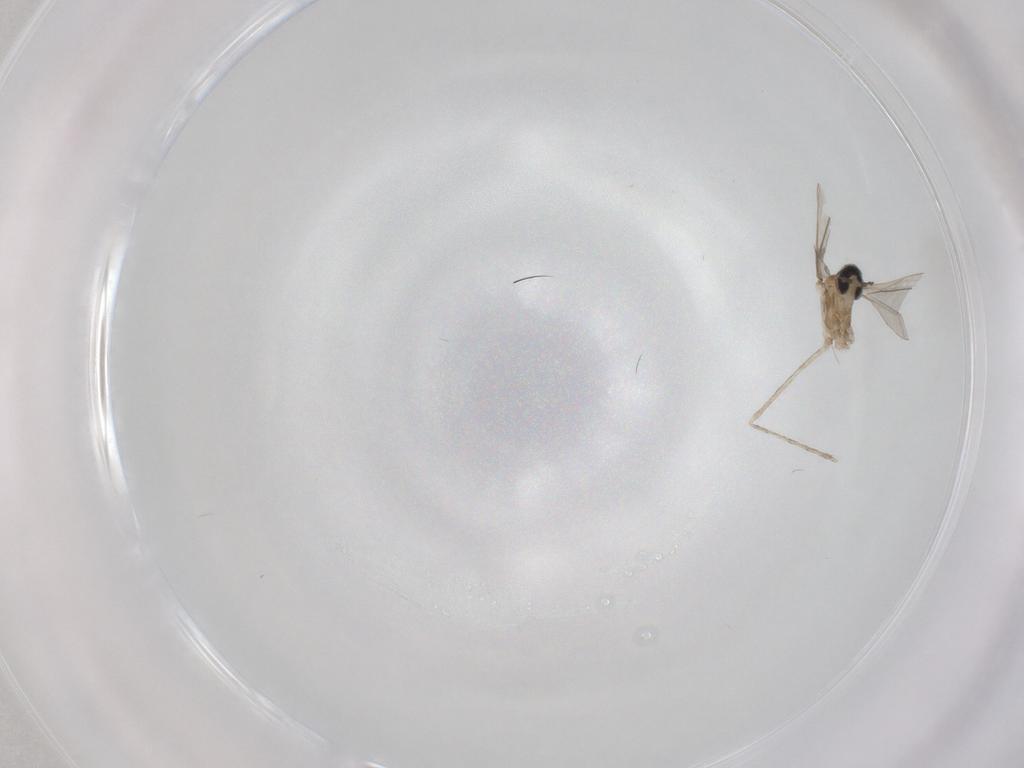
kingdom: Animalia
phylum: Arthropoda
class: Insecta
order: Diptera
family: Cecidomyiidae
